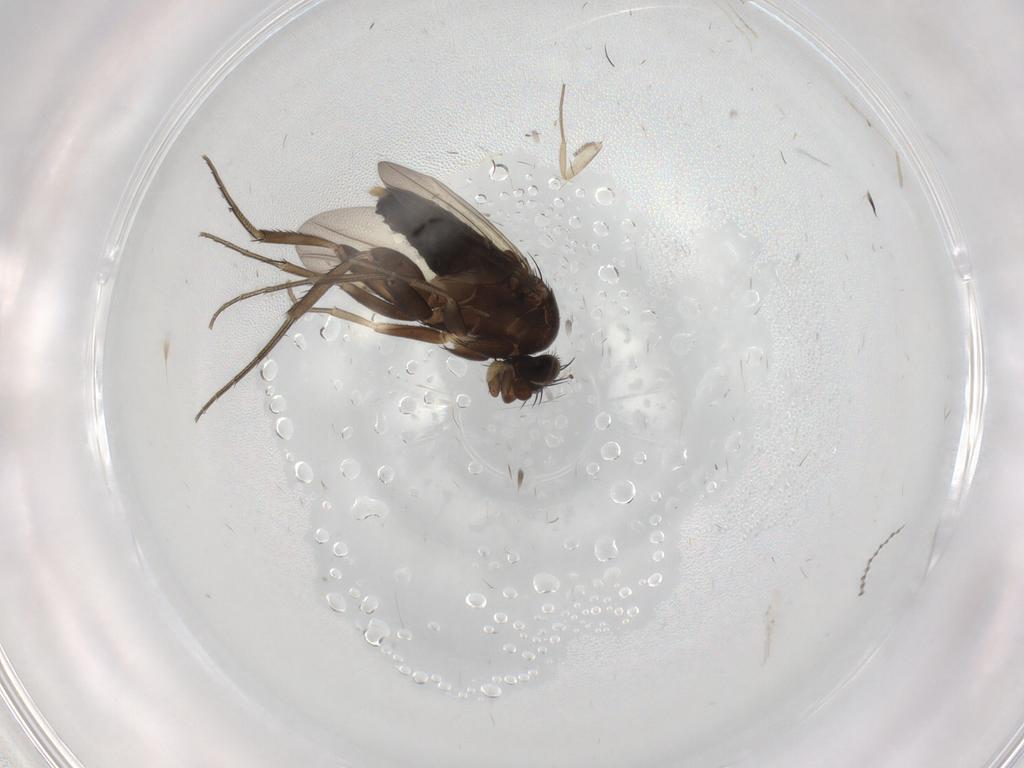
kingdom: Animalia
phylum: Arthropoda
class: Insecta
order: Diptera
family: Phoridae
